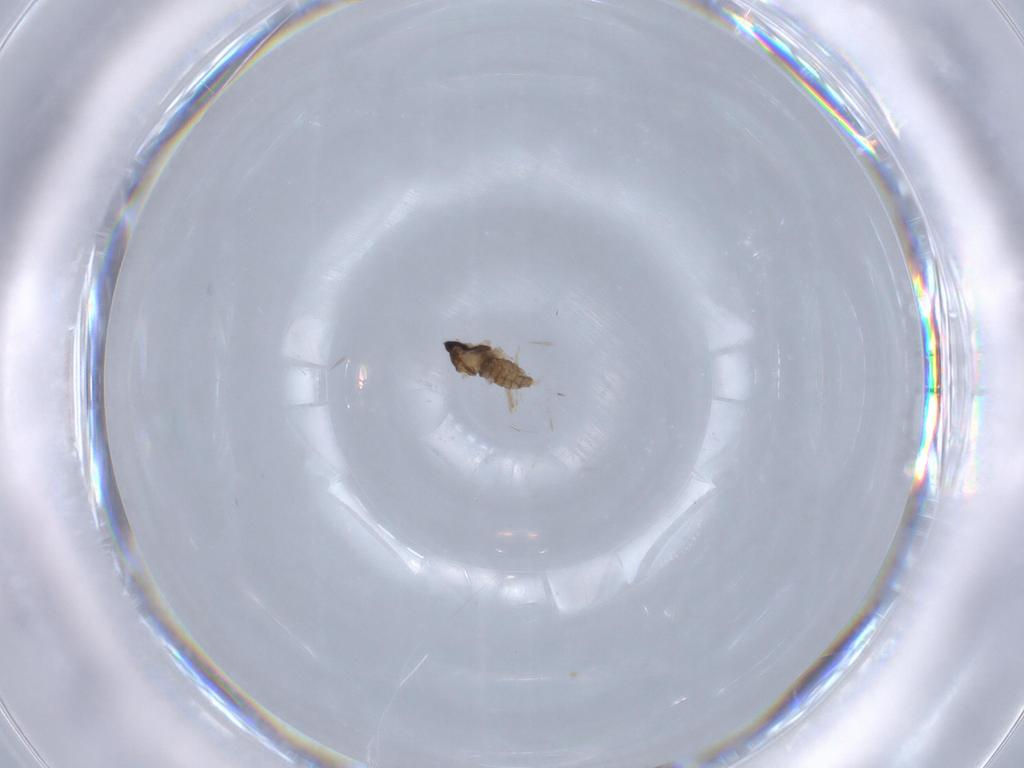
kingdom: Animalia
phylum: Arthropoda
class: Insecta
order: Diptera
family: Cecidomyiidae
